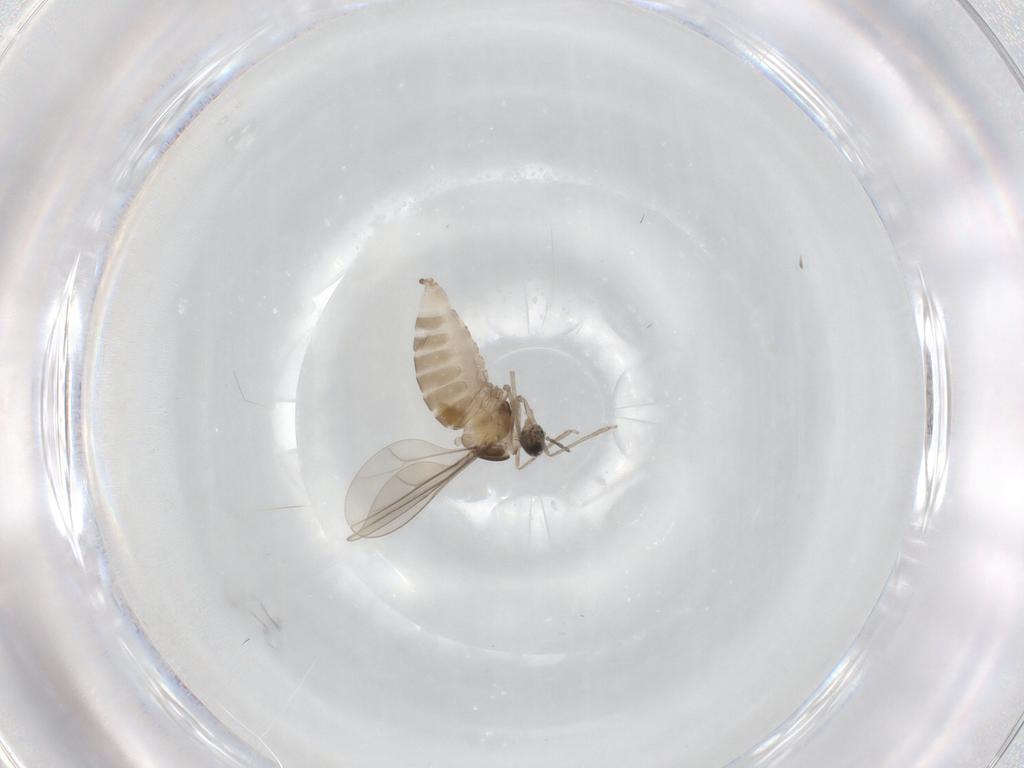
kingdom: Animalia
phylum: Arthropoda
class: Insecta
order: Diptera
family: Cecidomyiidae
